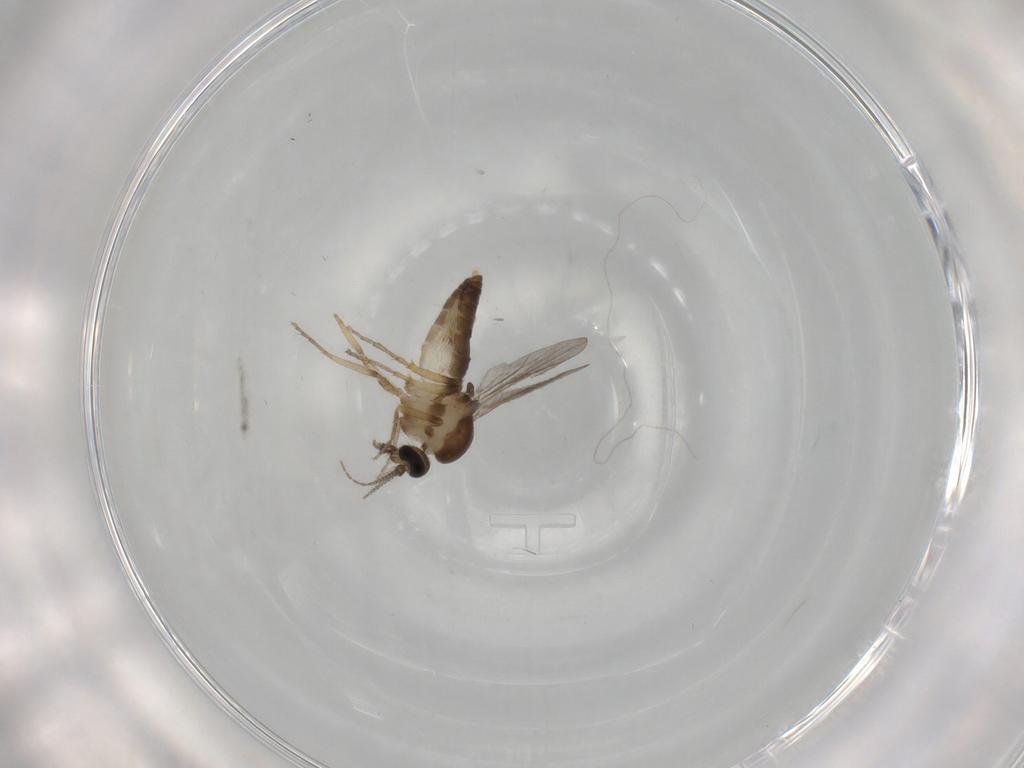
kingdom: Animalia
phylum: Arthropoda
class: Insecta
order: Diptera
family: Ceratopogonidae
